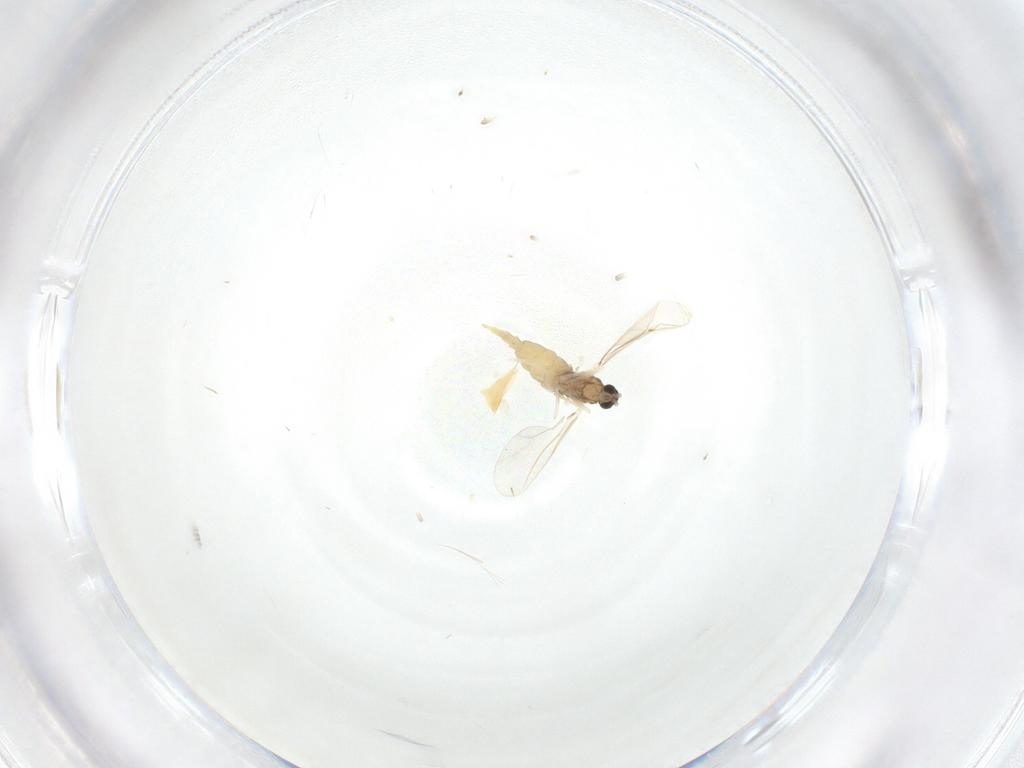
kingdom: Animalia
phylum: Arthropoda
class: Insecta
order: Diptera
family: Cecidomyiidae
